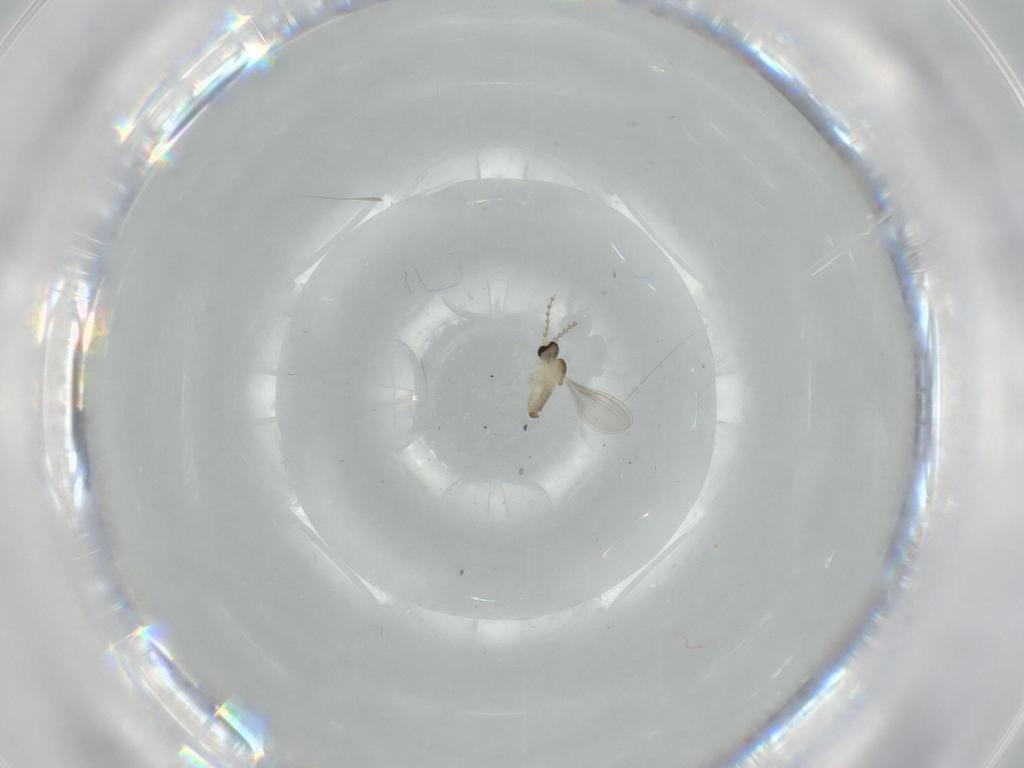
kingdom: Animalia
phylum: Arthropoda
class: Insecta
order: Diptera
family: Cecidomyiidae
